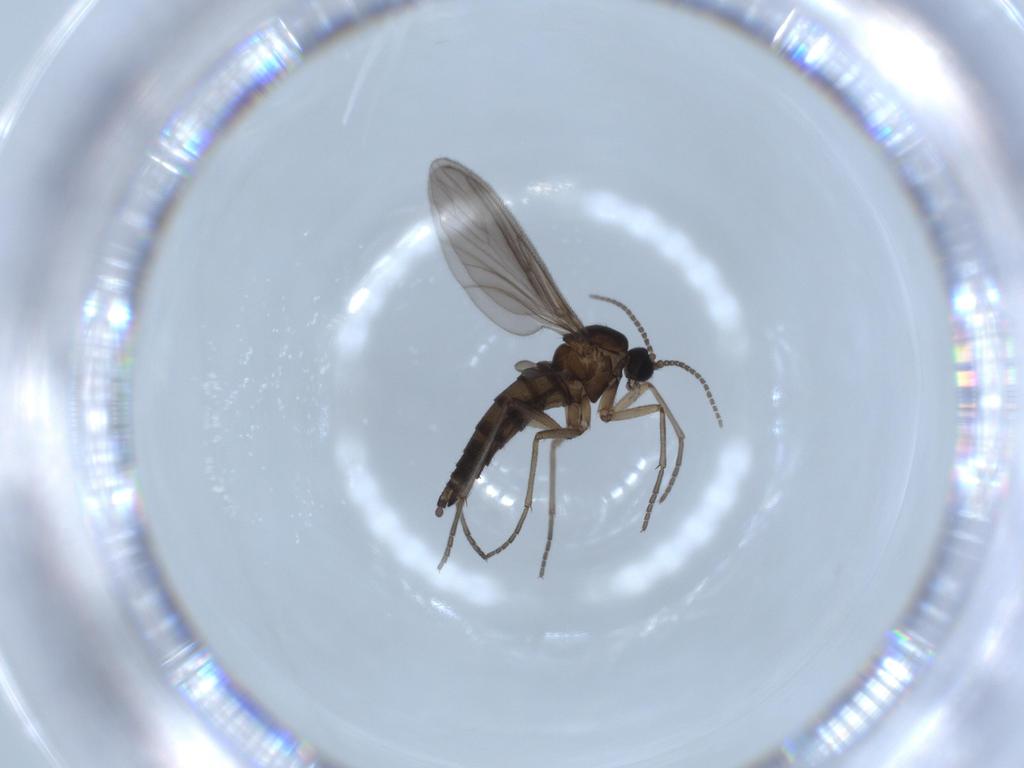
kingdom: Animalia
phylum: Arthropoda
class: Insecta
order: Diptera
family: Sciaridae
